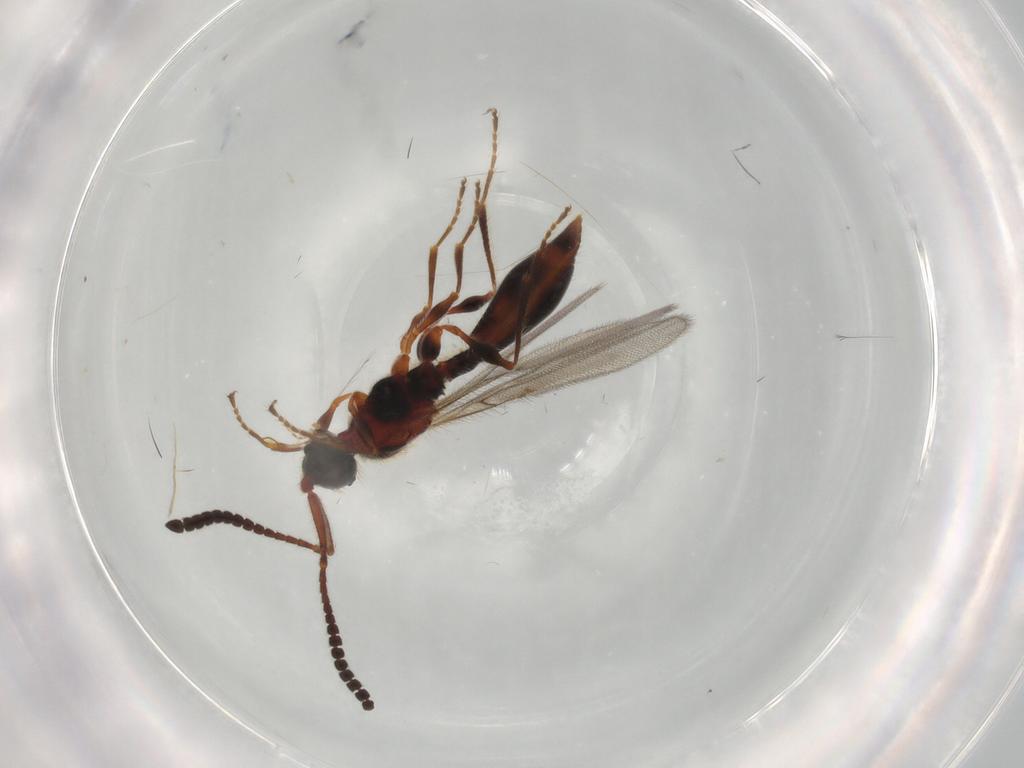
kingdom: Animalia
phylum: Arthropoda
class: Insecta
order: Hymenoptera
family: Diapriidae
